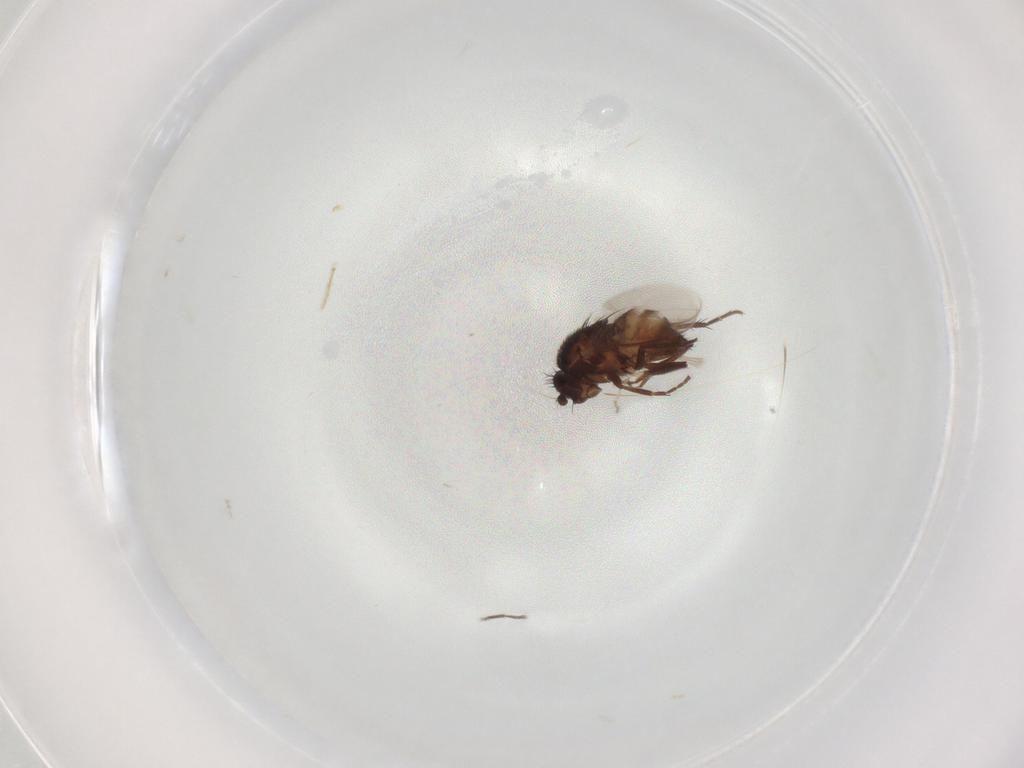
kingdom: Animalia
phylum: Arthropoda
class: Insecta
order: Diptera
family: Sphaeroceridae
